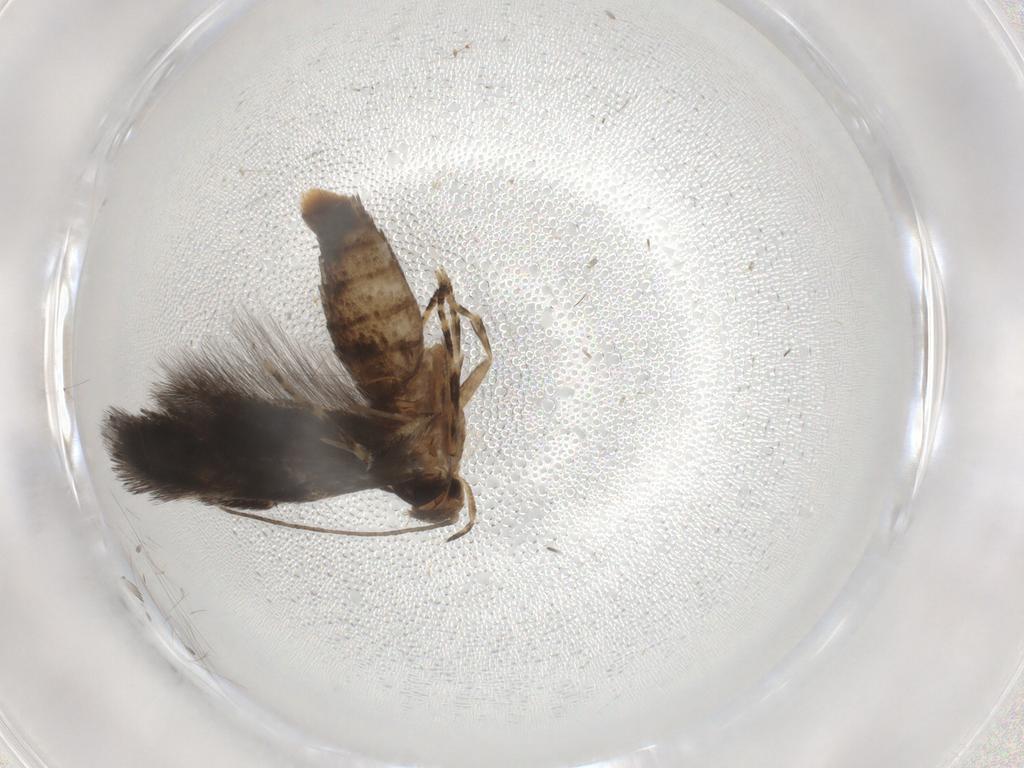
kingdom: Animalia
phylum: Arthropoda
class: Insecta
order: Lepidoptera
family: Elachistidae
